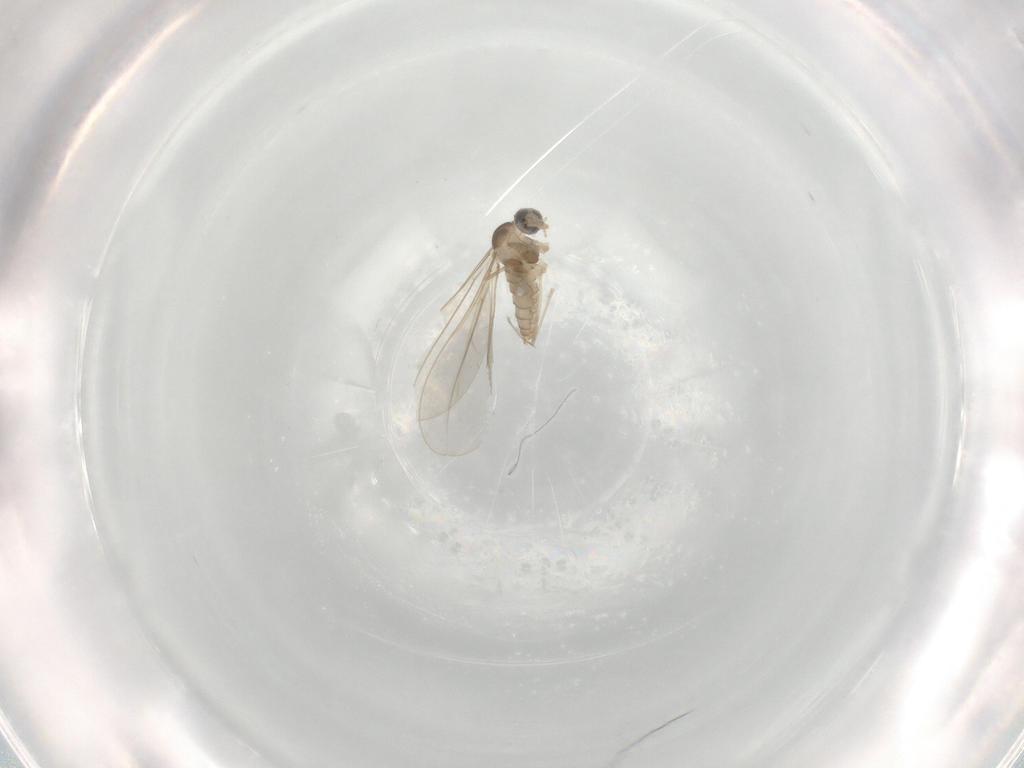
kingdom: Animalia
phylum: Arthropoda
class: Insecta
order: Diptera
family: Cecidomyiidae
